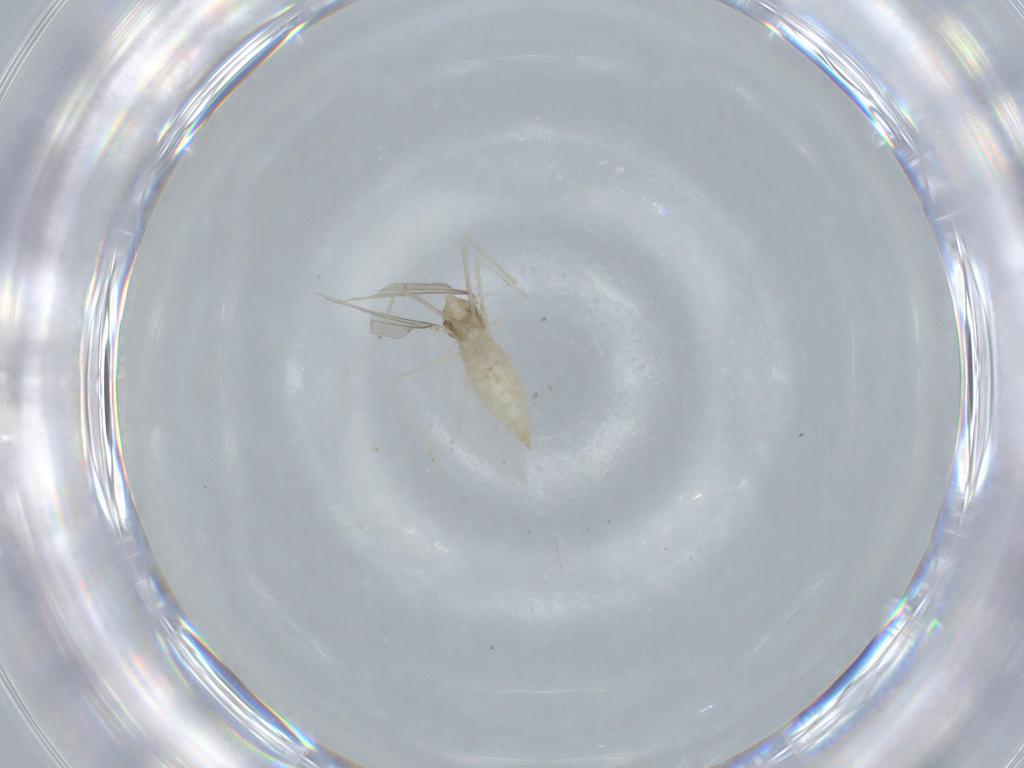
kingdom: Animalia
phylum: Arthropoda
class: Insecta
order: Diptera
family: Cecidomyiidae
